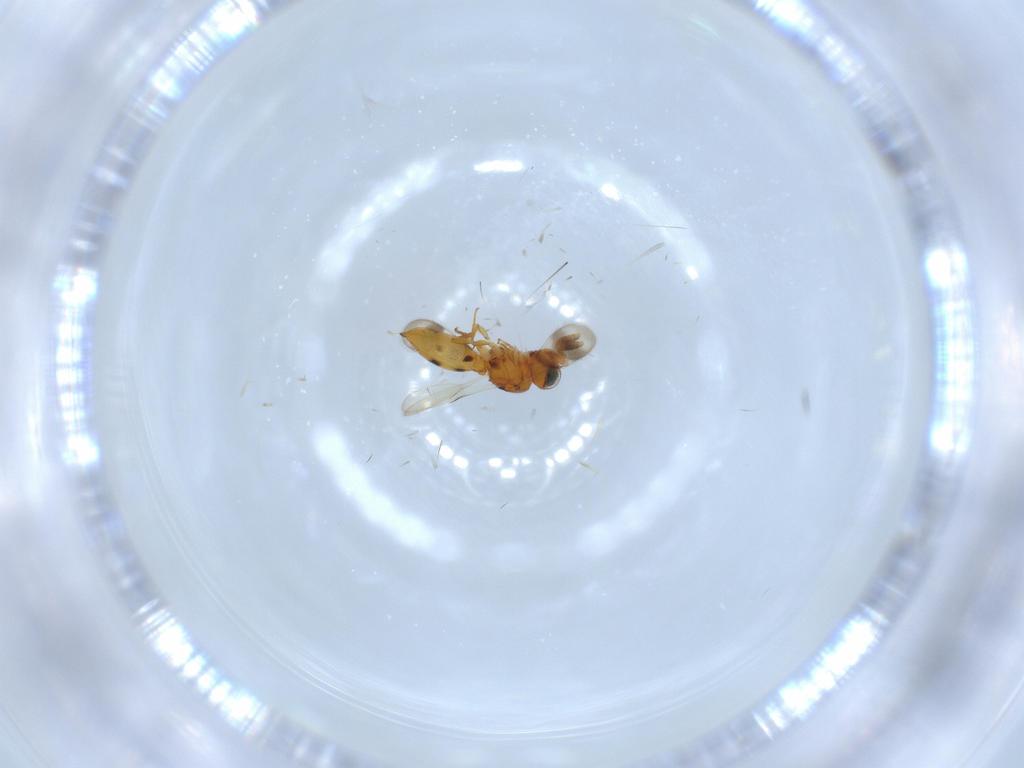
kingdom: Animalia
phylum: Arthropoda
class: Insecta
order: Hymenoptera
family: Scelionidae
